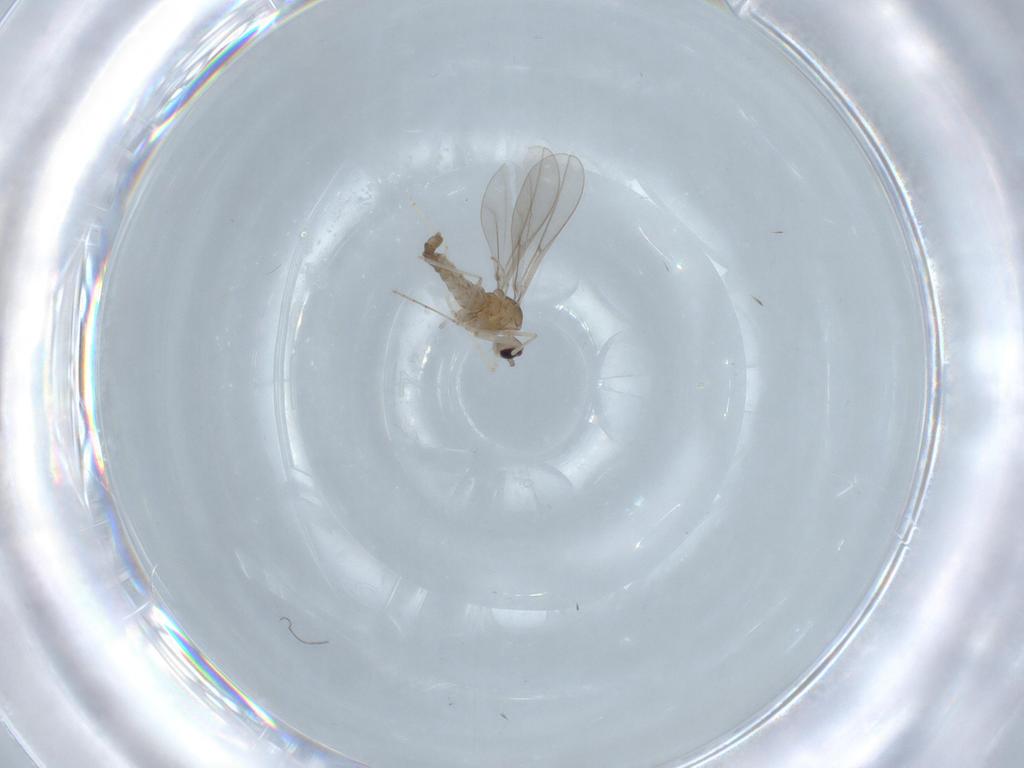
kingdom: Animalia
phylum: Arthropoda
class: Insecta
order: Diptera
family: Cecidomyiidae
